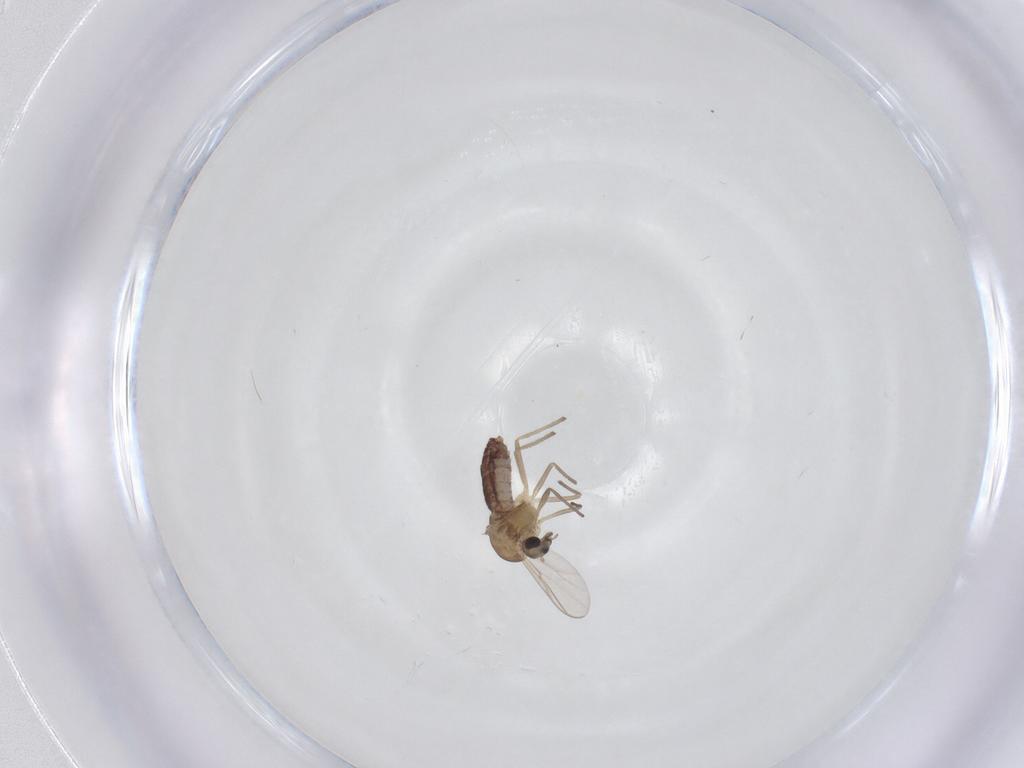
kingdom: Animalia
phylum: Arthropoda
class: Insecta
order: Diptera
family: Chironomidae
